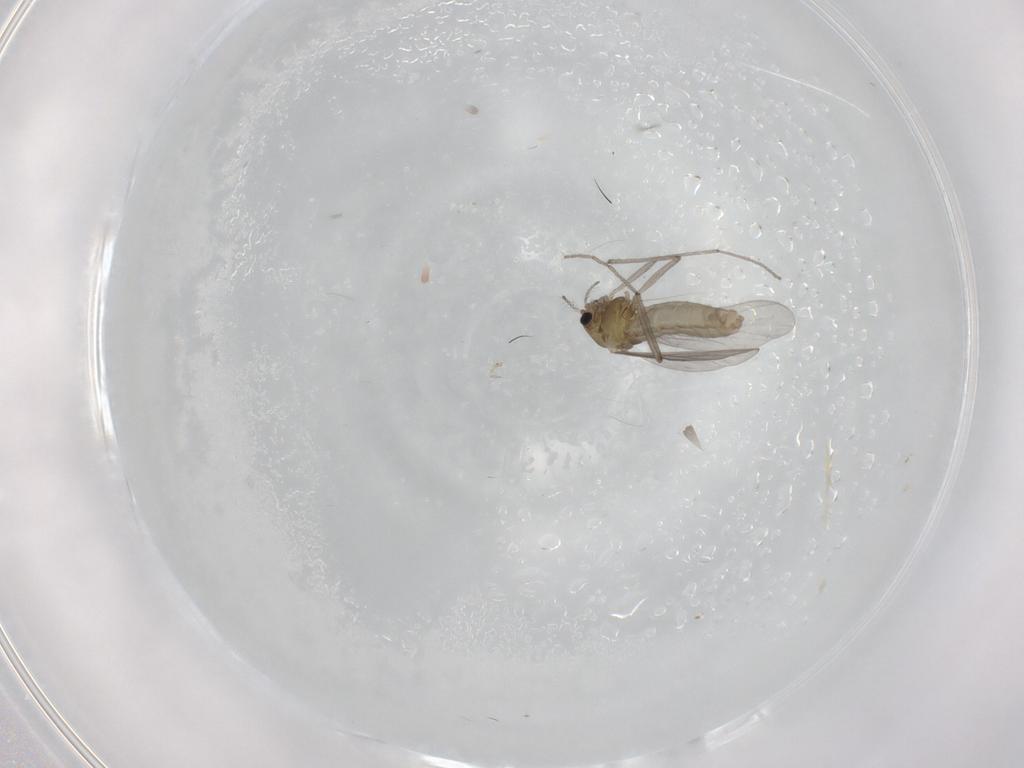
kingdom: Animalia
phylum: Arthropoda
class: Insecta
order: Diptera
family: Chironomidae
